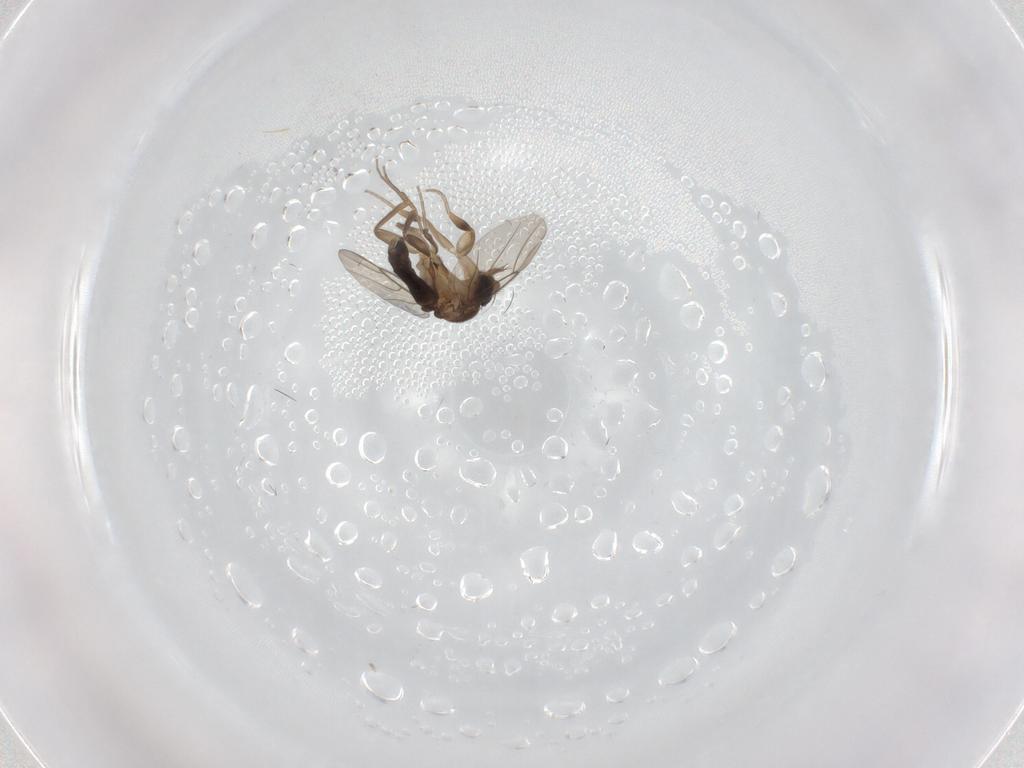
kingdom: Animalia
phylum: Arthropoda
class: Insecta
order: Diptera
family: Phoridae
